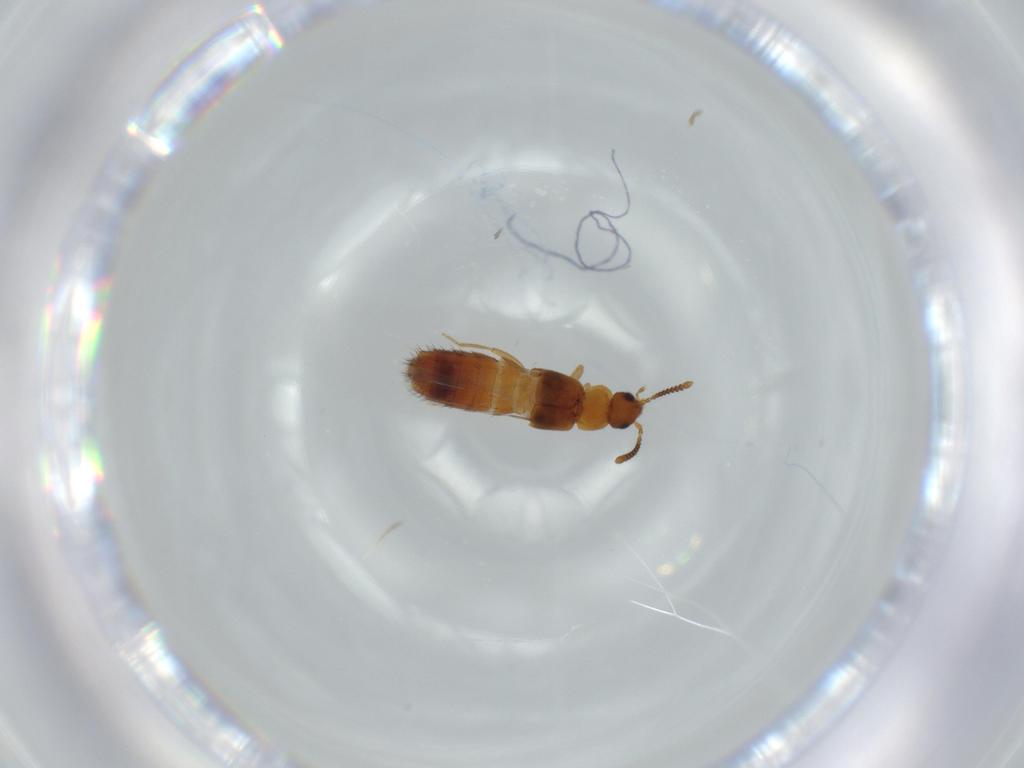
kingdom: Animalia
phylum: Arthropoda
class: Insecta
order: Coleoptera
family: Staphylinidae
